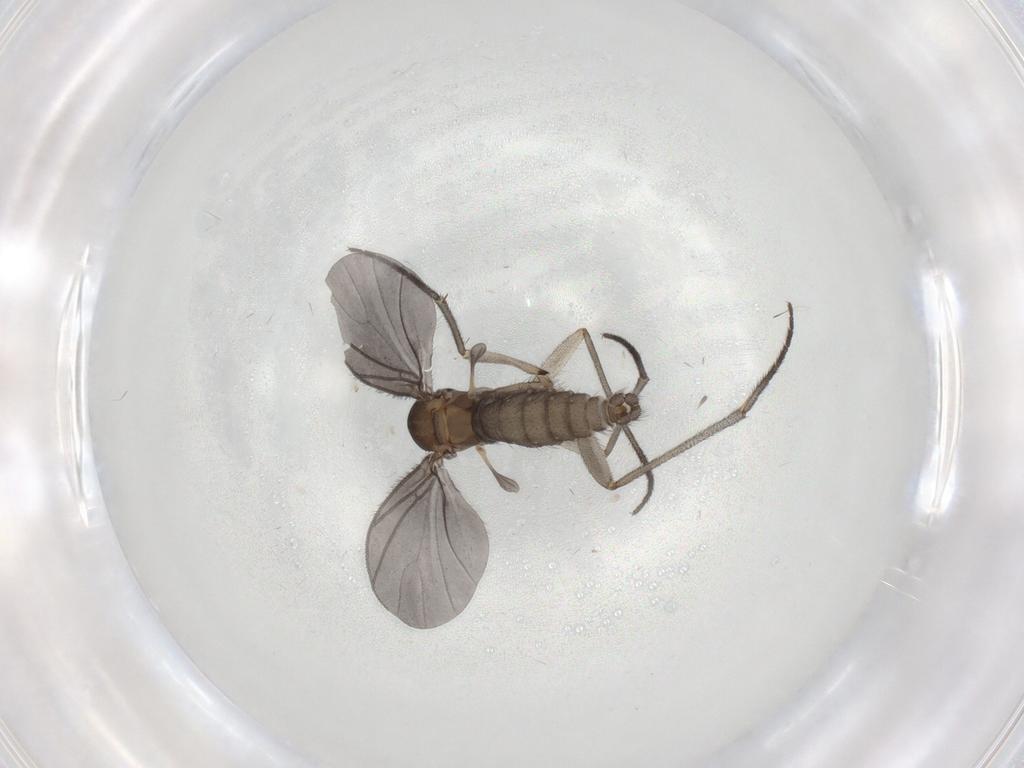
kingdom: Animalia
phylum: Arthropoda
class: Insecta
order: Diptera
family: Sciaridae
